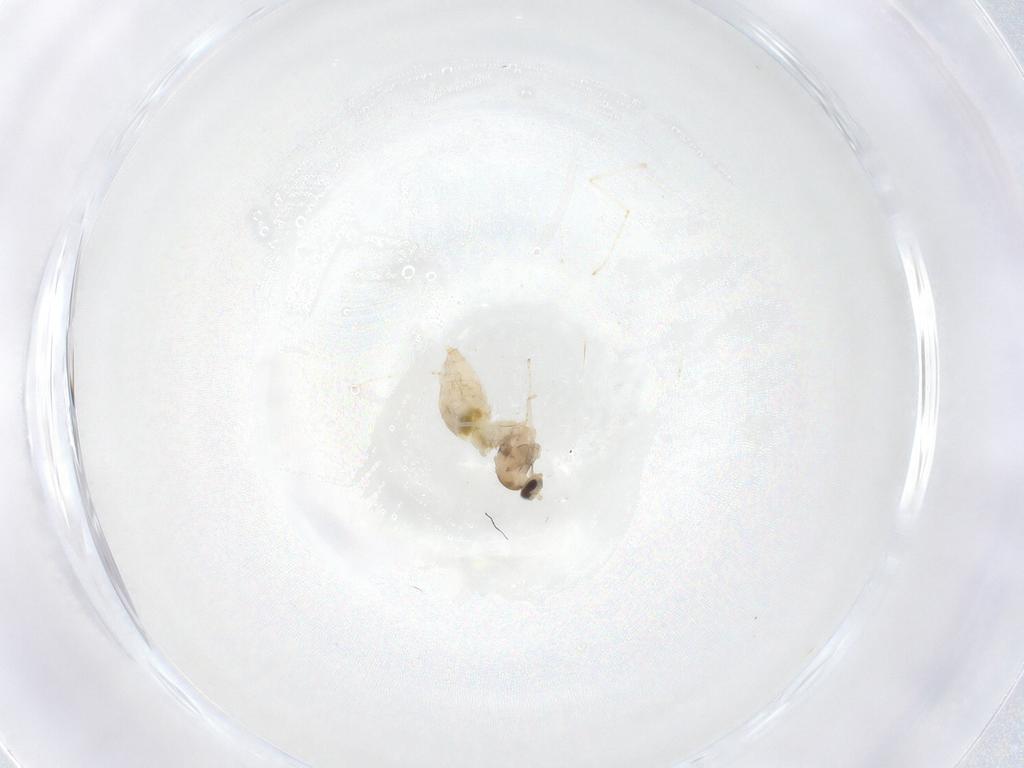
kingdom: Animalia
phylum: Arthropoda
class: Insecta
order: Diptera
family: Cecidomyiidae
